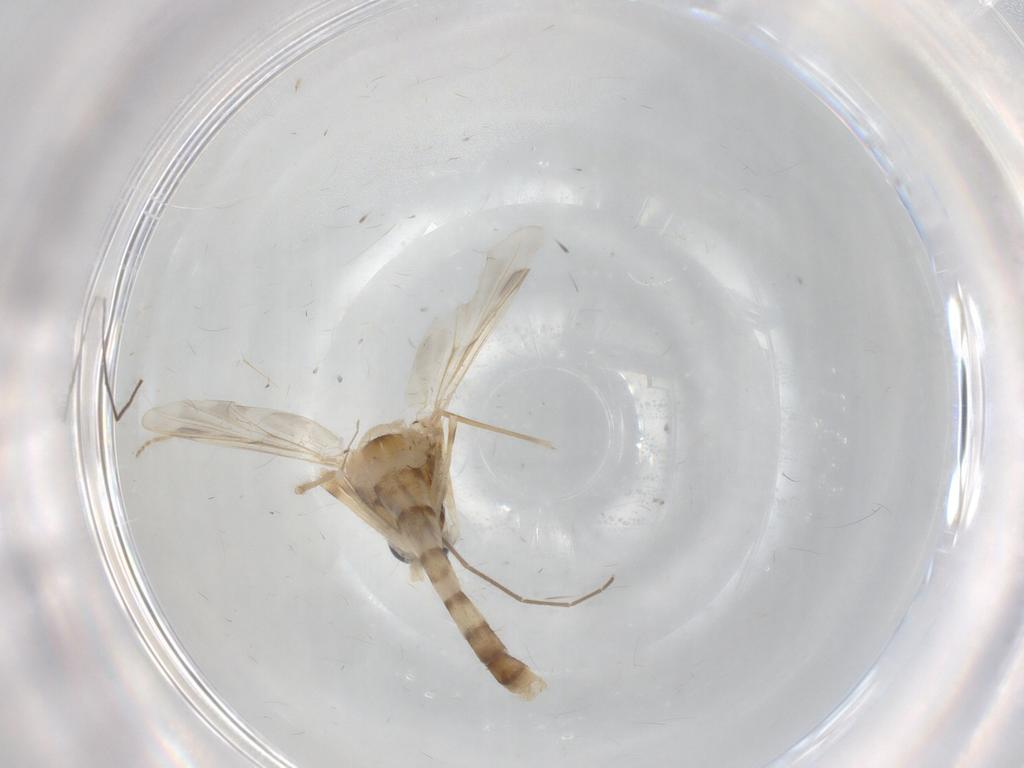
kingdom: Animalia
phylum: Arthropoda
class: Insecta
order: Diptera
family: Chironomidae
